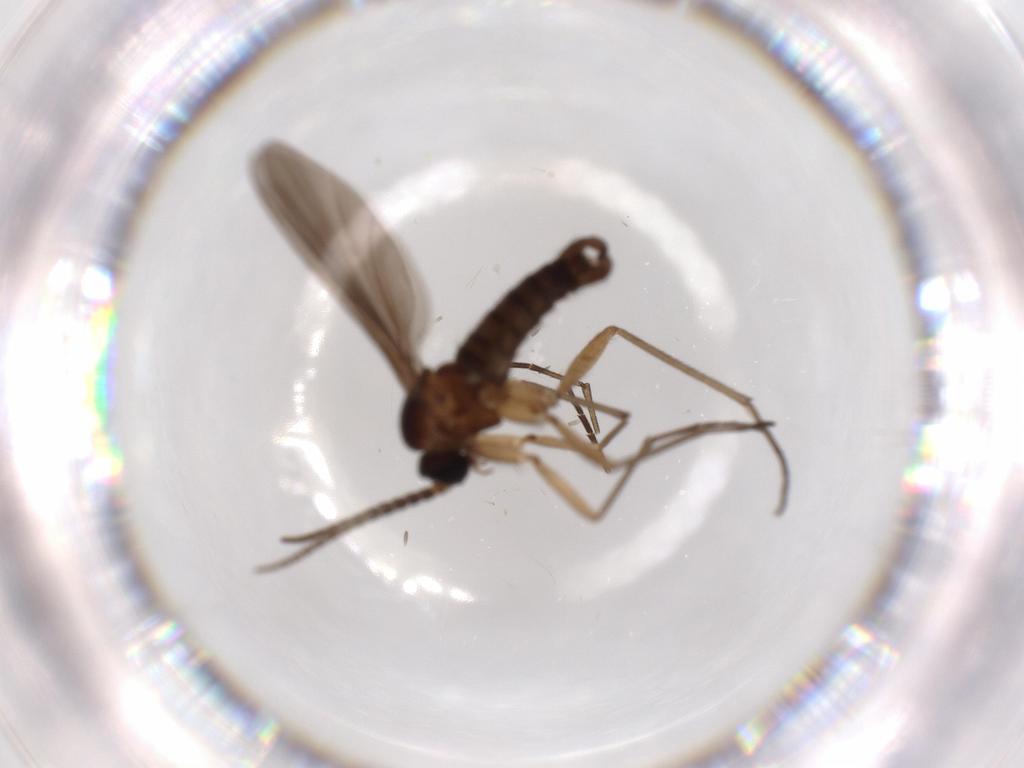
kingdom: Animalia
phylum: Arthropoda
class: Insecta
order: Diptera
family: Sciaridae
